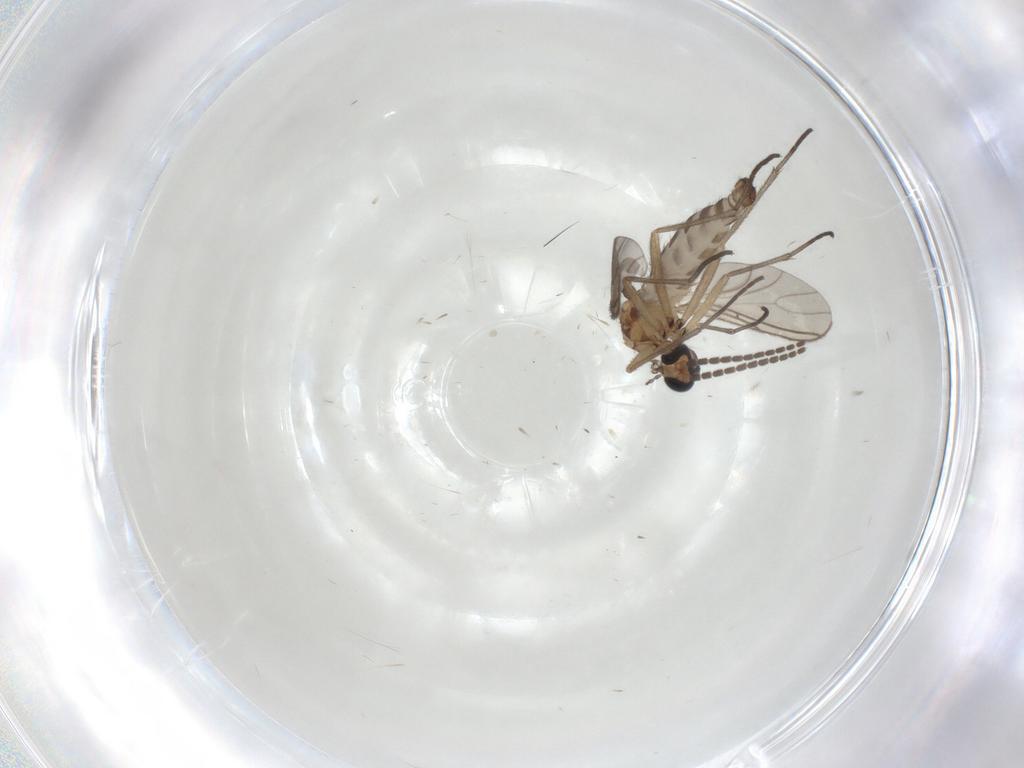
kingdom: Animalia
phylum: Arthropoda
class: Insecta
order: Diptera
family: Sciaridae
